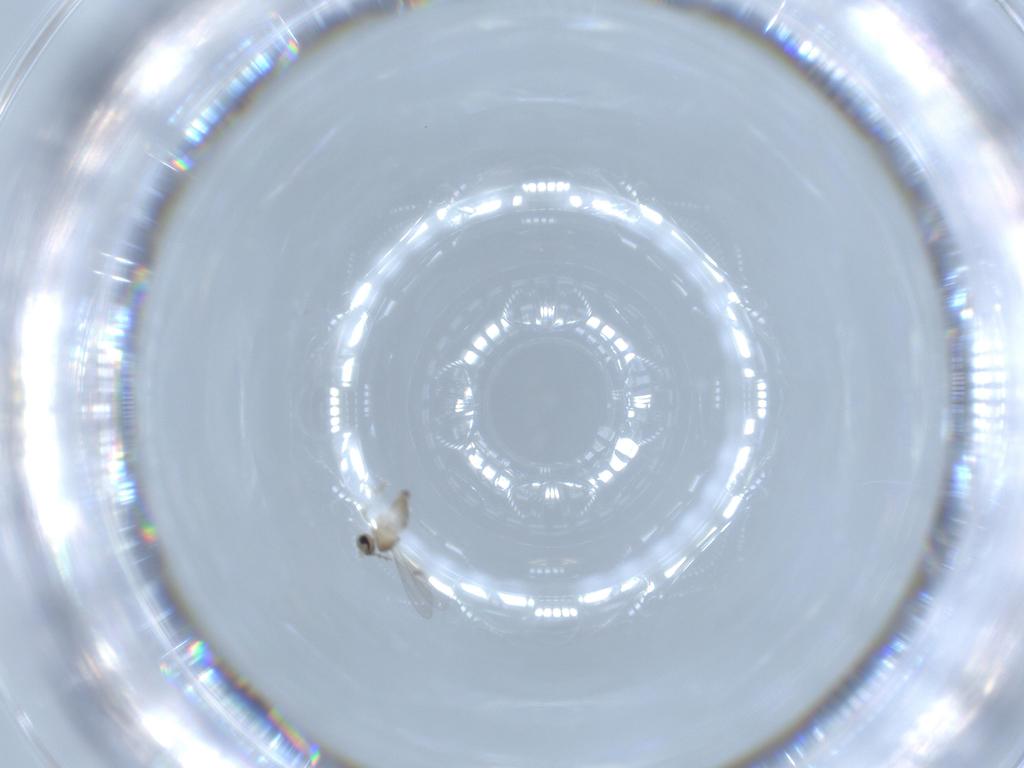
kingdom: Animalia
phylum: Arthropoda
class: Insecta
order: Diptera
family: Cecidomyiidae
